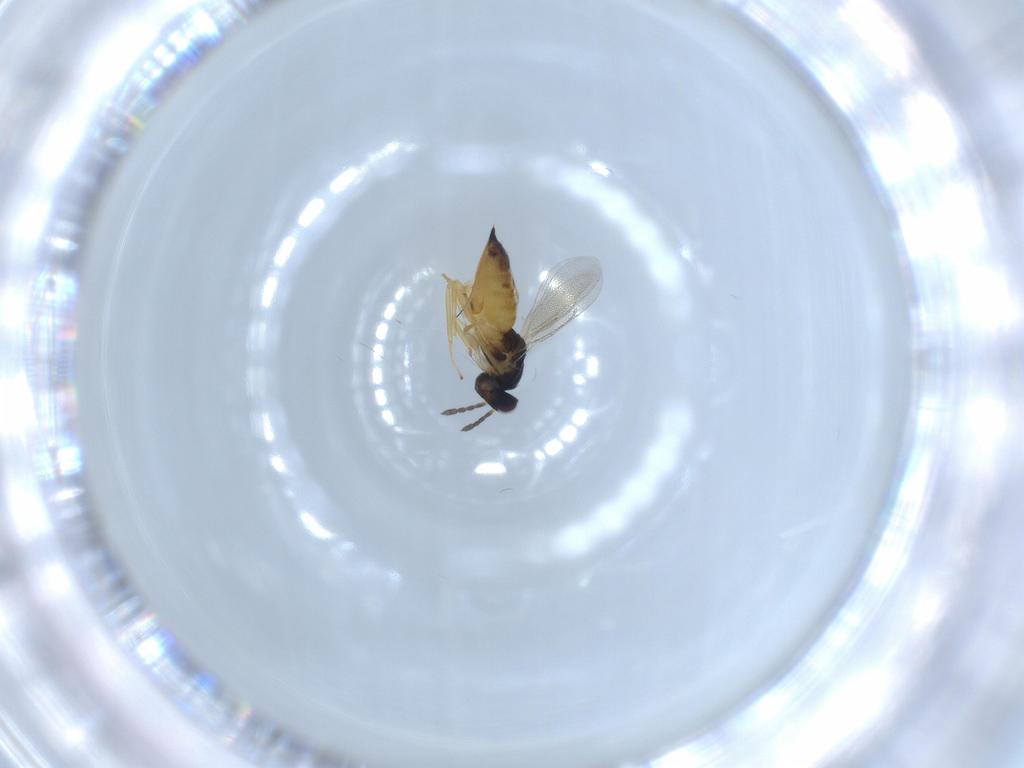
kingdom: Animalia
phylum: Arthropoda
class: Insecta
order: Hymenoptera
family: Eulophidae
